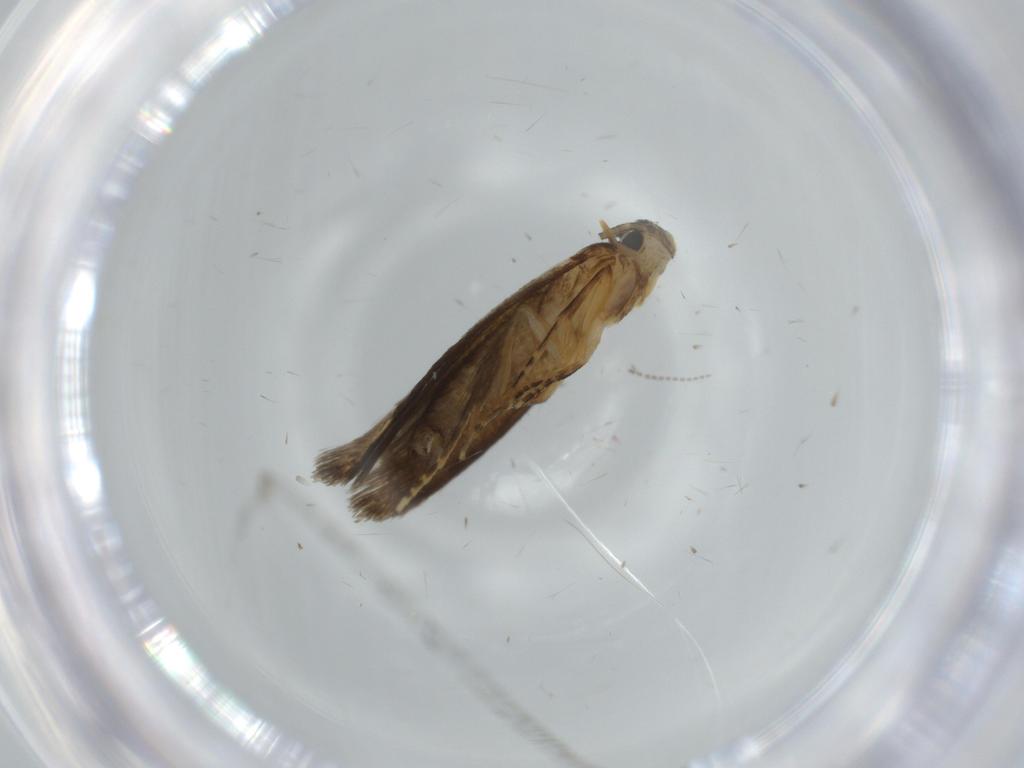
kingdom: Animalia
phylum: Arthropoda
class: Insecta
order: Lepidoptera
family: Tineidae
